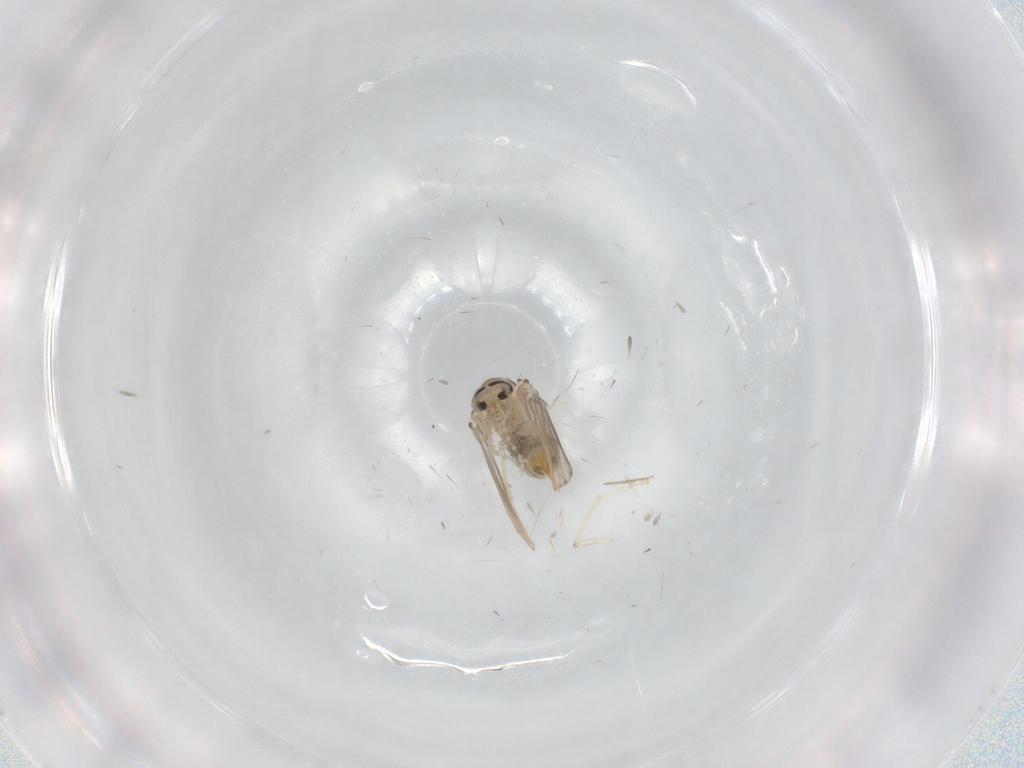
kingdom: Animalia
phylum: Arthropoda
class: Insecta
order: Diptera
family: Psychodidae
